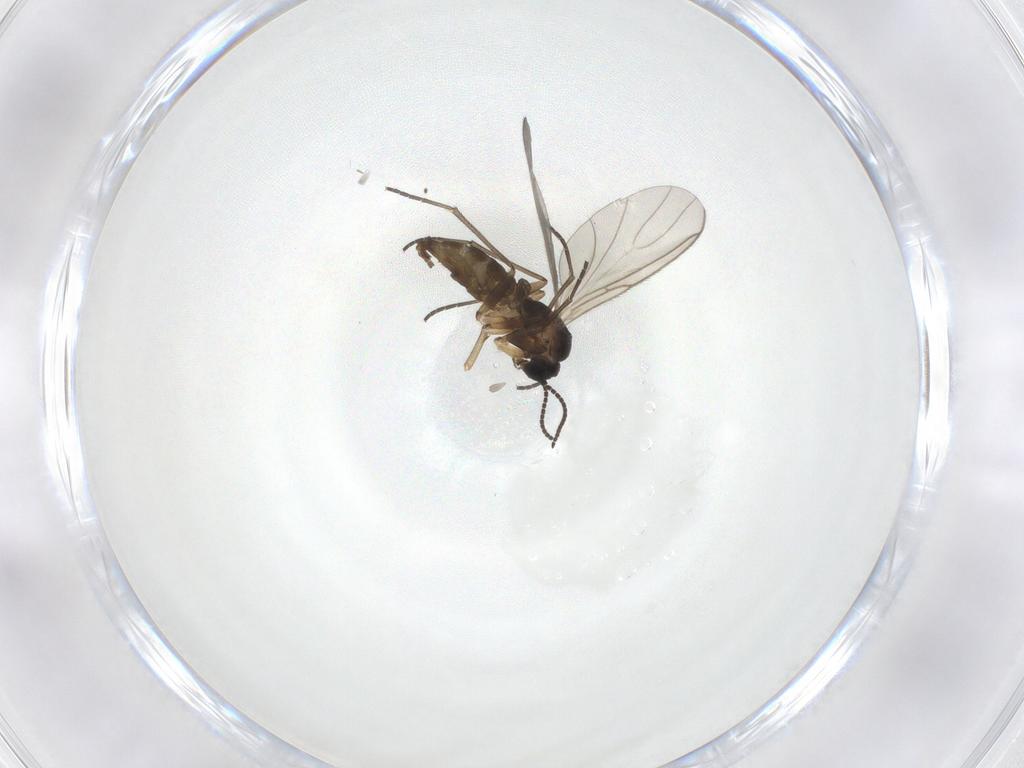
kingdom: Animalia
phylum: Arthropoda
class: Insecta
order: Diptera
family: Sciaridae
